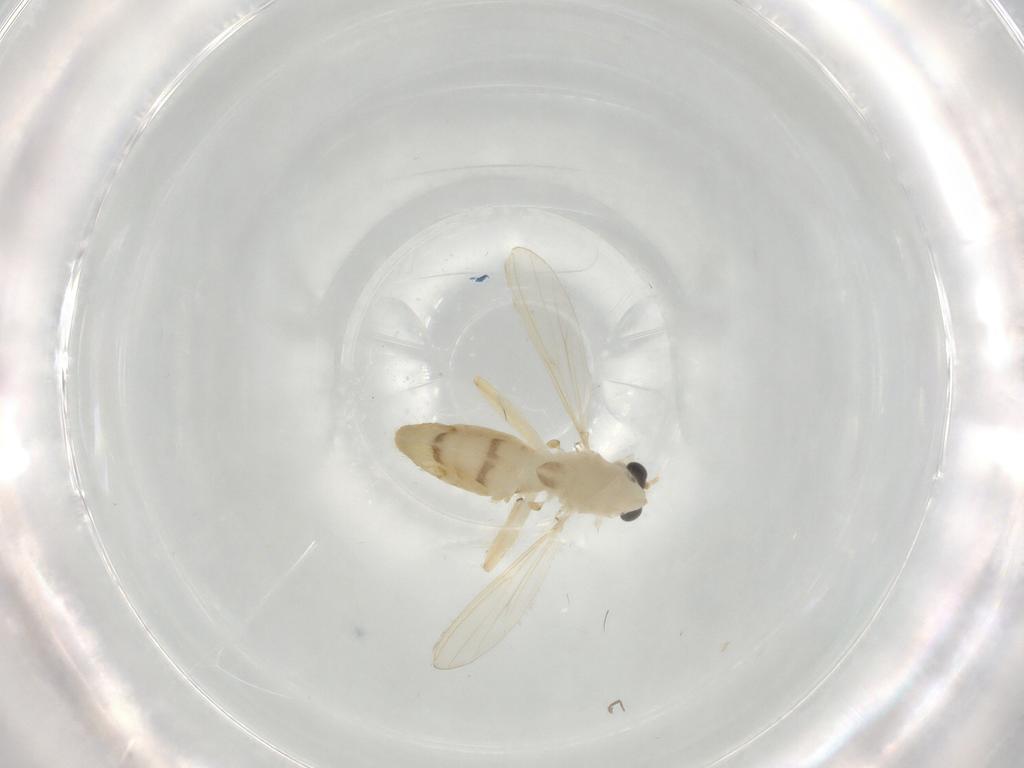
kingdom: Animalia
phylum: Arthropoda
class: Insecta
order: Diptera
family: Chironomidae
